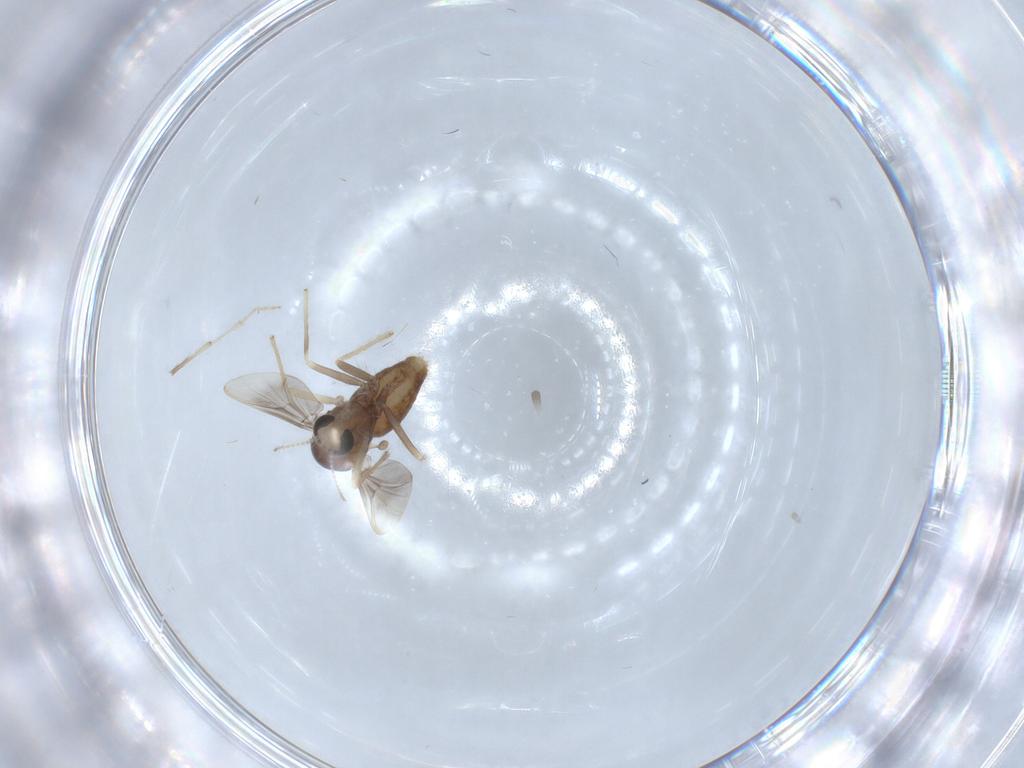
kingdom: Animalia
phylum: Arthropoda
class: Insecta
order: Diptera
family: Chironomidae
